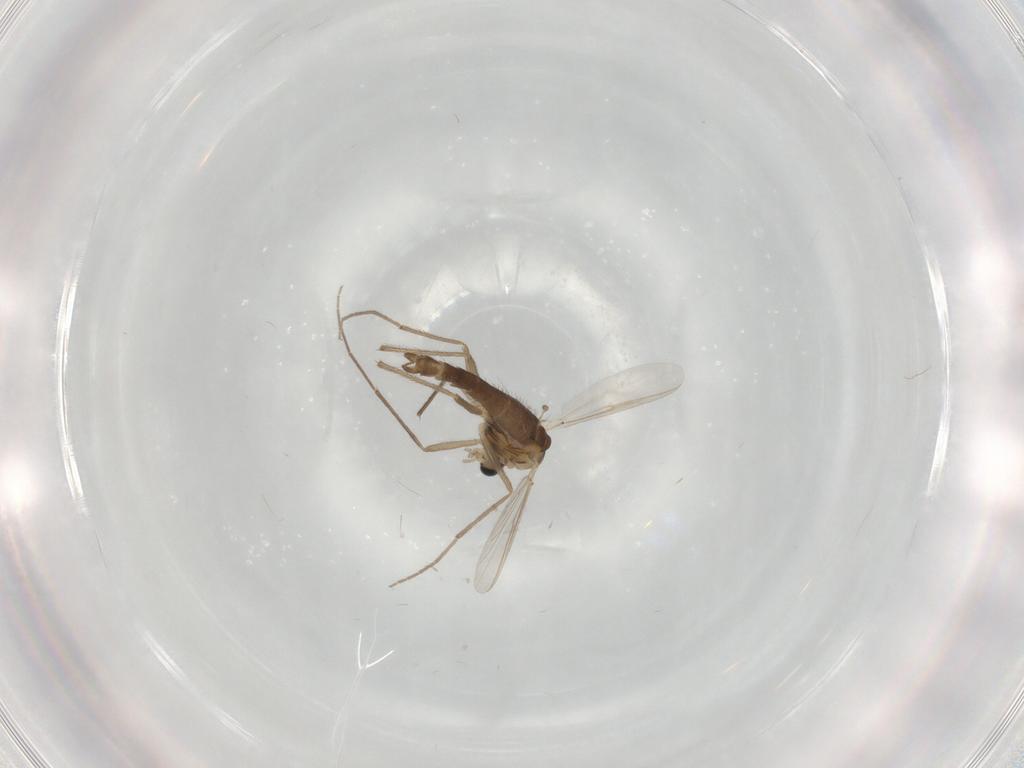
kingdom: Animalia
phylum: Arthropoda
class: Insecta
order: Diptera
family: Chironomidae
